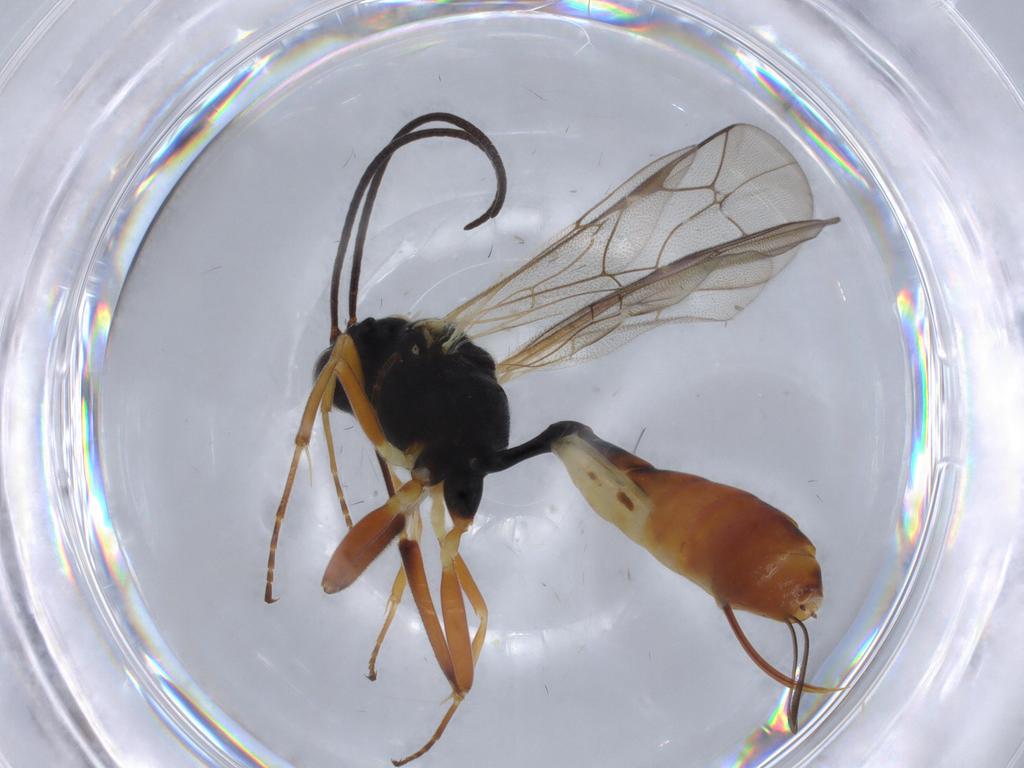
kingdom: Animalia
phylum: Arthropoda
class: Insecta
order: Hymenoptera
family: Ichneumonidae
